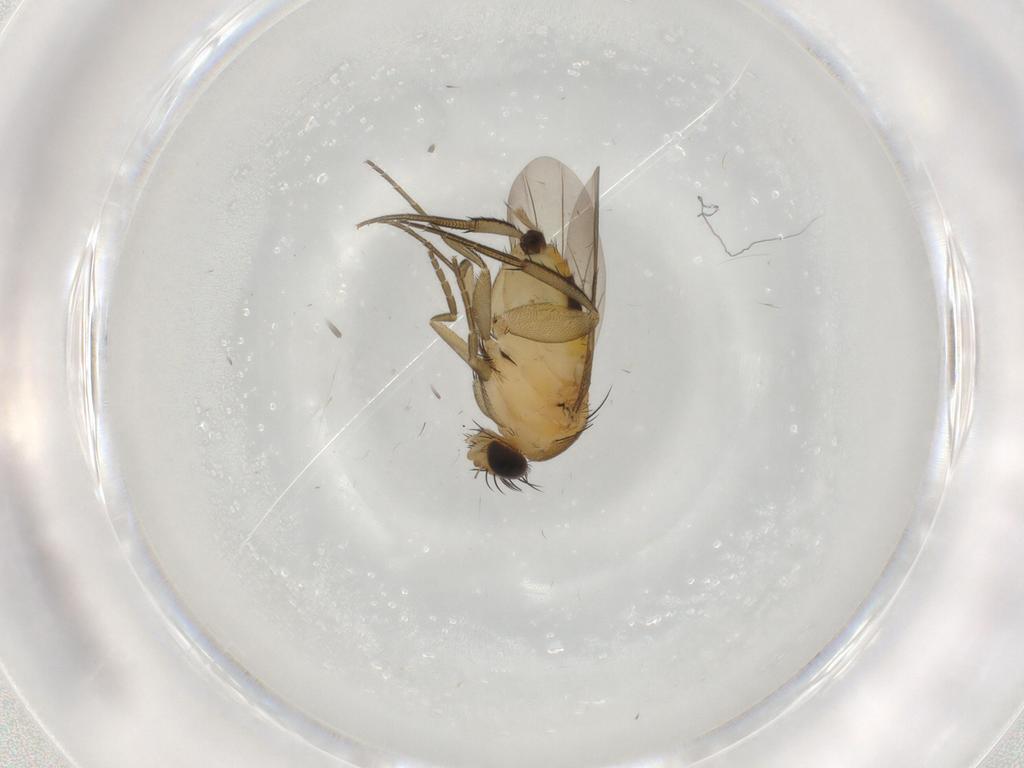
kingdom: Animalia
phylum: Arthropoda
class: Insecta
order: Diptera
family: Phoridae
